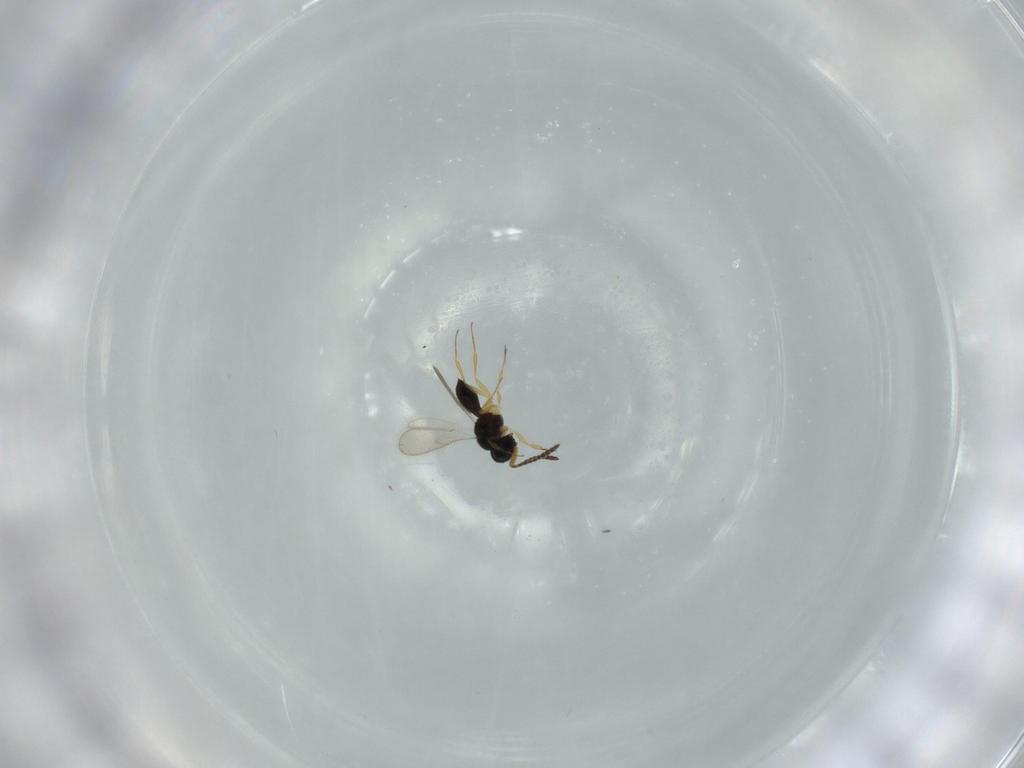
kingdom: Animalia
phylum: Arthropoda
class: Insecta
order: Hymenoptera
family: Scelionidae
